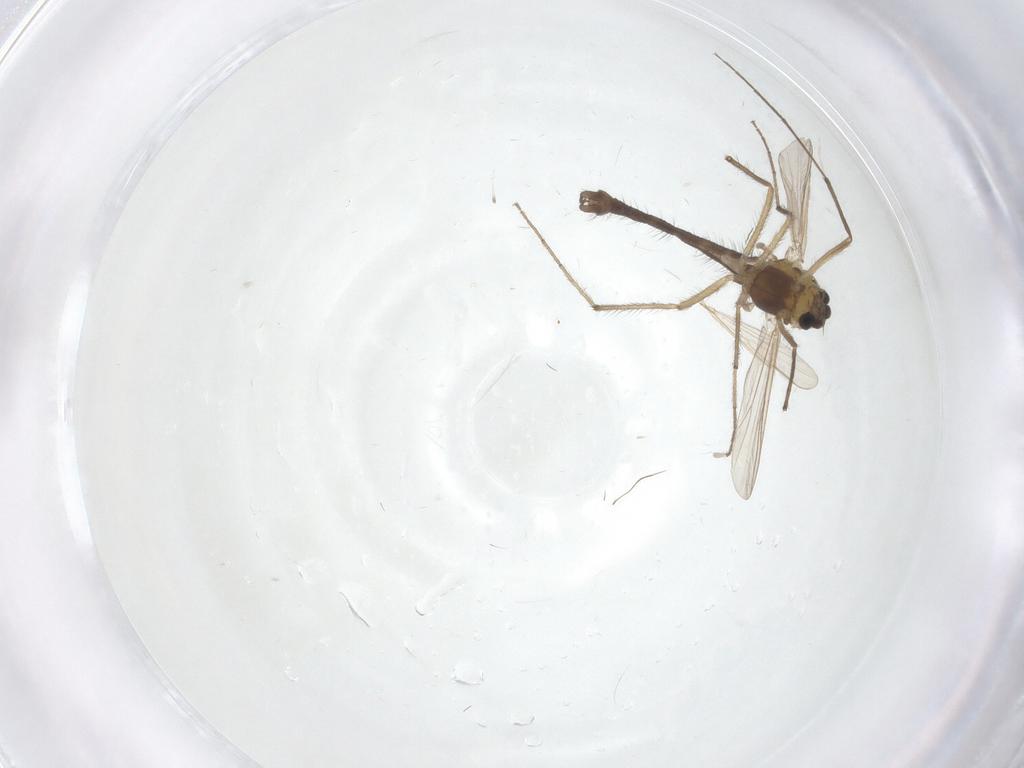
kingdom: Animalia
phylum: Arthropoda
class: Insecta
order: Diptera
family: Chironomidae
